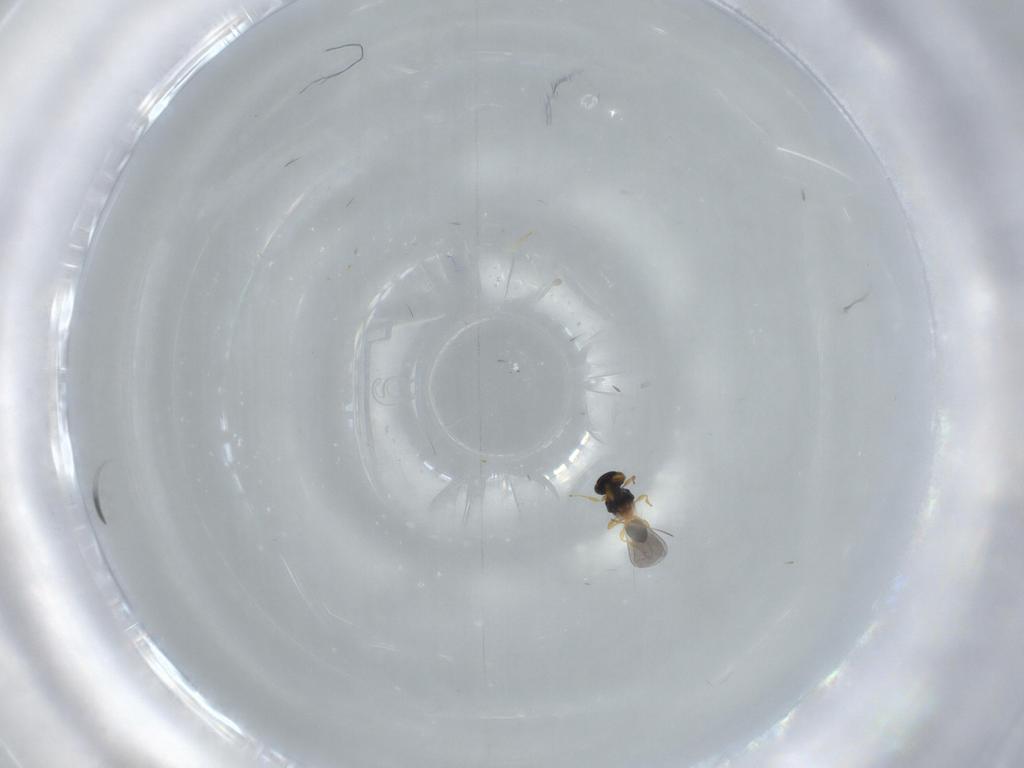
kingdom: Animalia
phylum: Arthropoda
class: Insecta
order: Hymenoptera
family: Platygastridae
